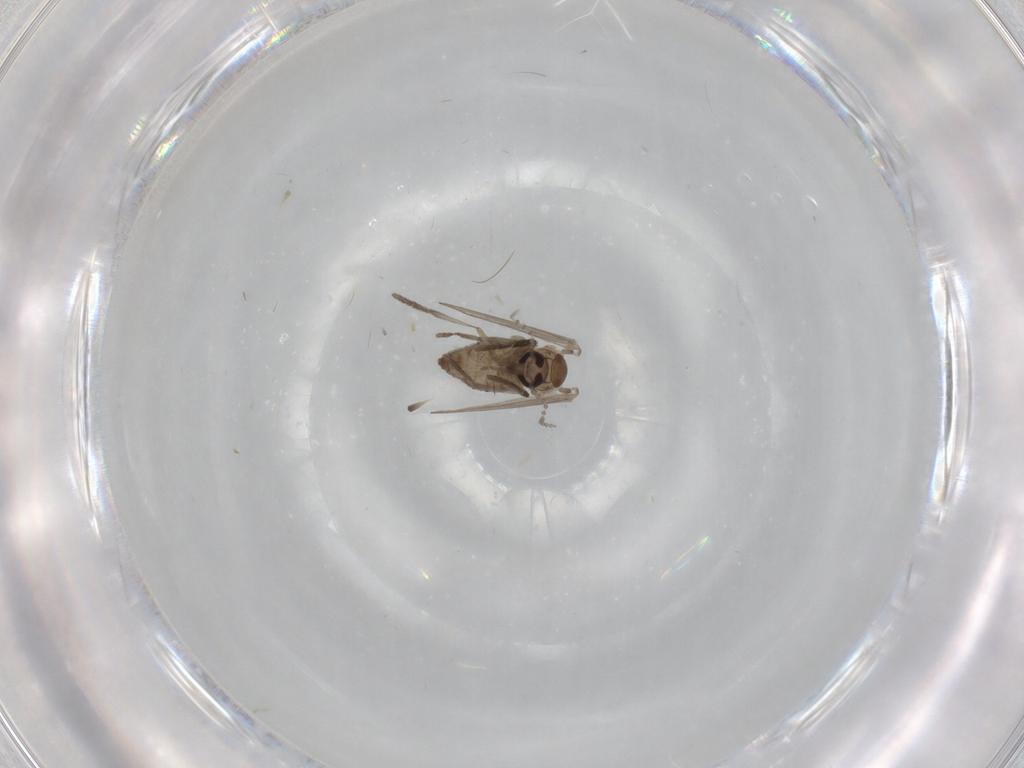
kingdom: Animalia
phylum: Arthropoda
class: Insecta
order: Diptera
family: Psychodidae
